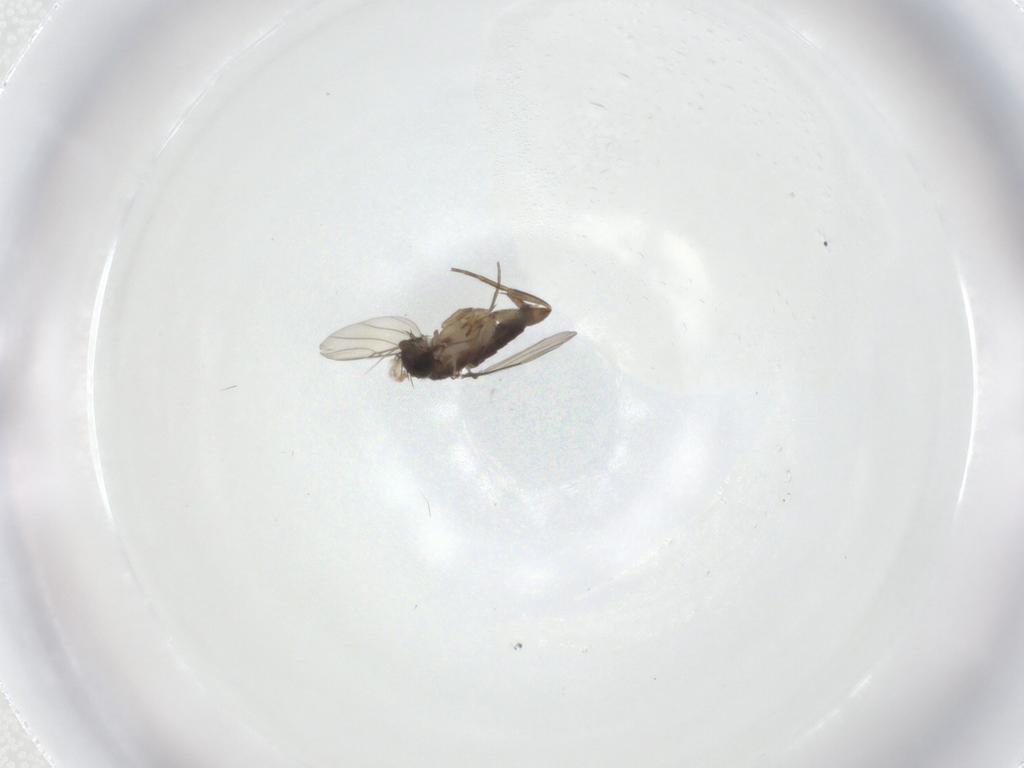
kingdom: Animalia
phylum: Arthropoda
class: Insecta
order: Diptera
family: Phoridae
